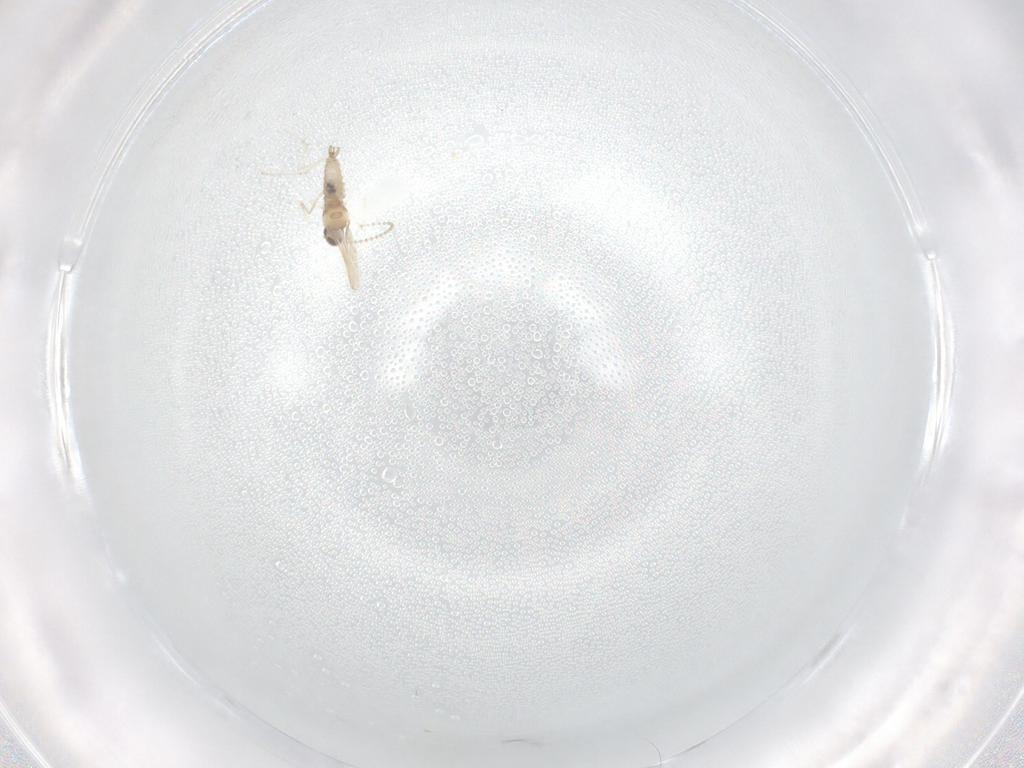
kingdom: Animalia
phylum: Arthropoda
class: Insecta
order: Diptera
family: Cecidomyiidae
